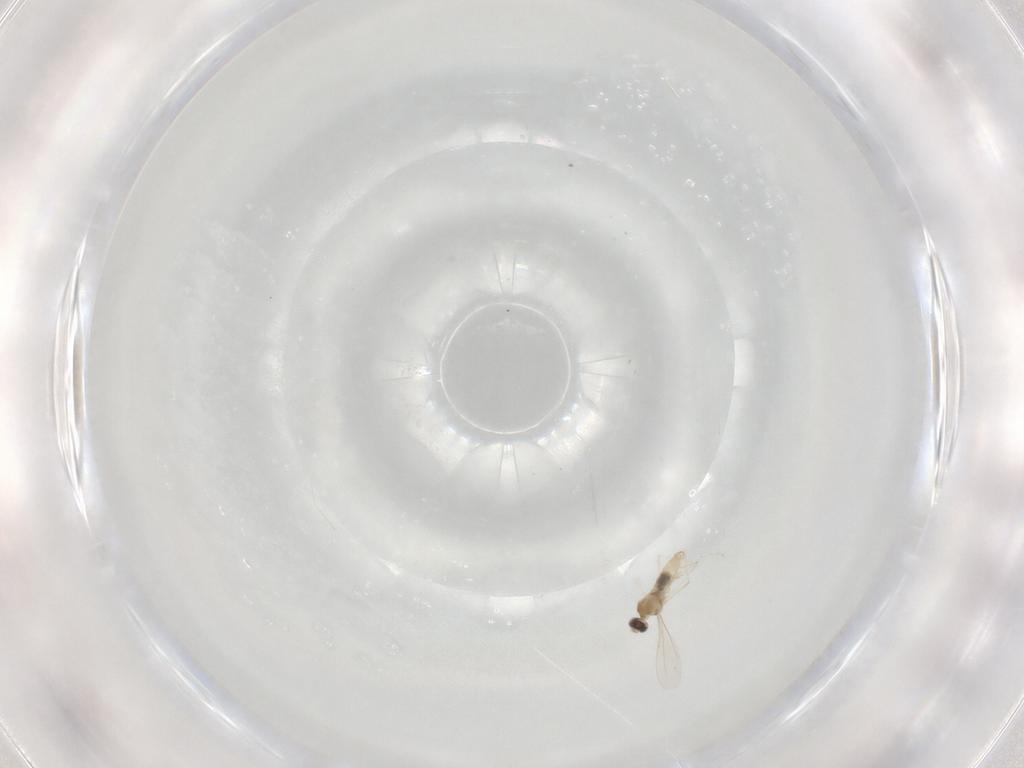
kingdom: Animalia
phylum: Arthropoda
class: Insecta
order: Diptera
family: Cecidomyiidae
